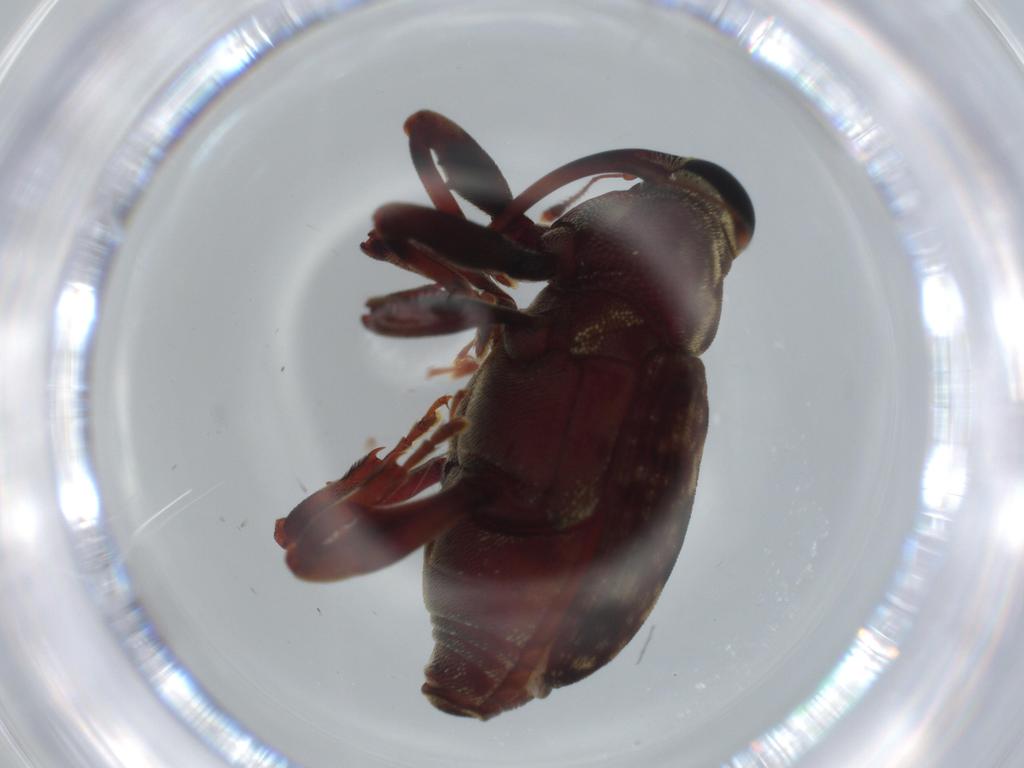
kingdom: Animalia
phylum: Arthropoda
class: Insecta
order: Coleoptera
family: Curculionidae
